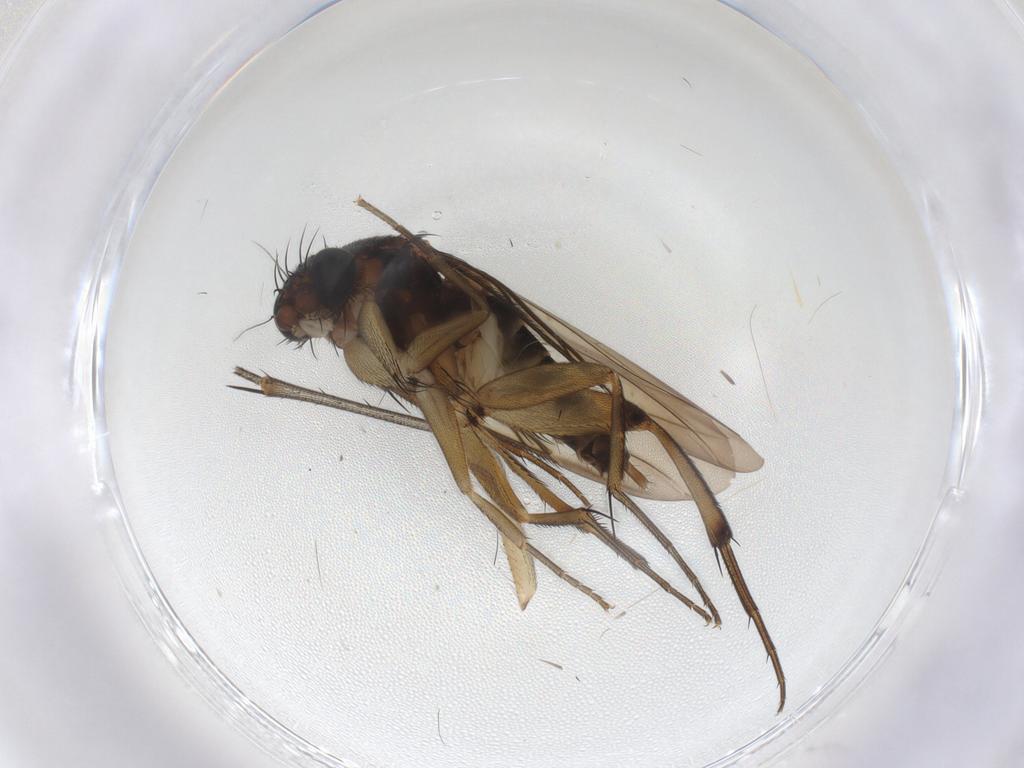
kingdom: Animalia
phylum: Arthropoda
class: Insecta
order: Diptera
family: Phoridae
